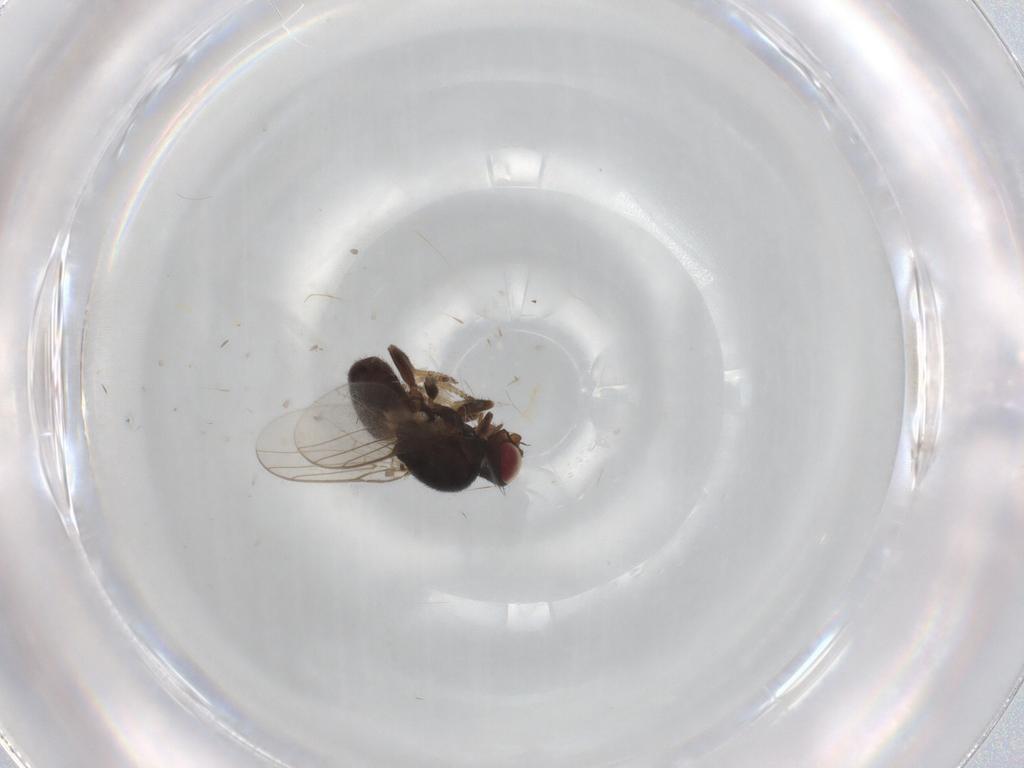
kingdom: Animalia
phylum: Arthropoda
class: Insecta
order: Diptera
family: Chloropidae
